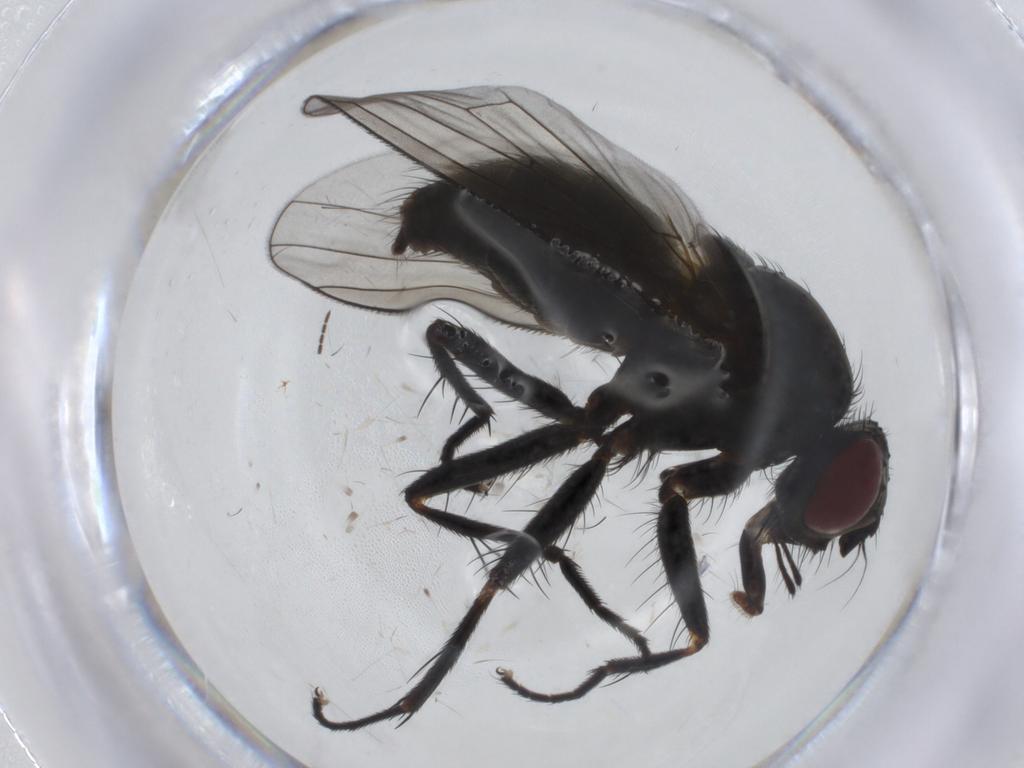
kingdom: Animalia
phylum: Arthropoda
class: Insecta
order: Diptera
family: Muscidae
